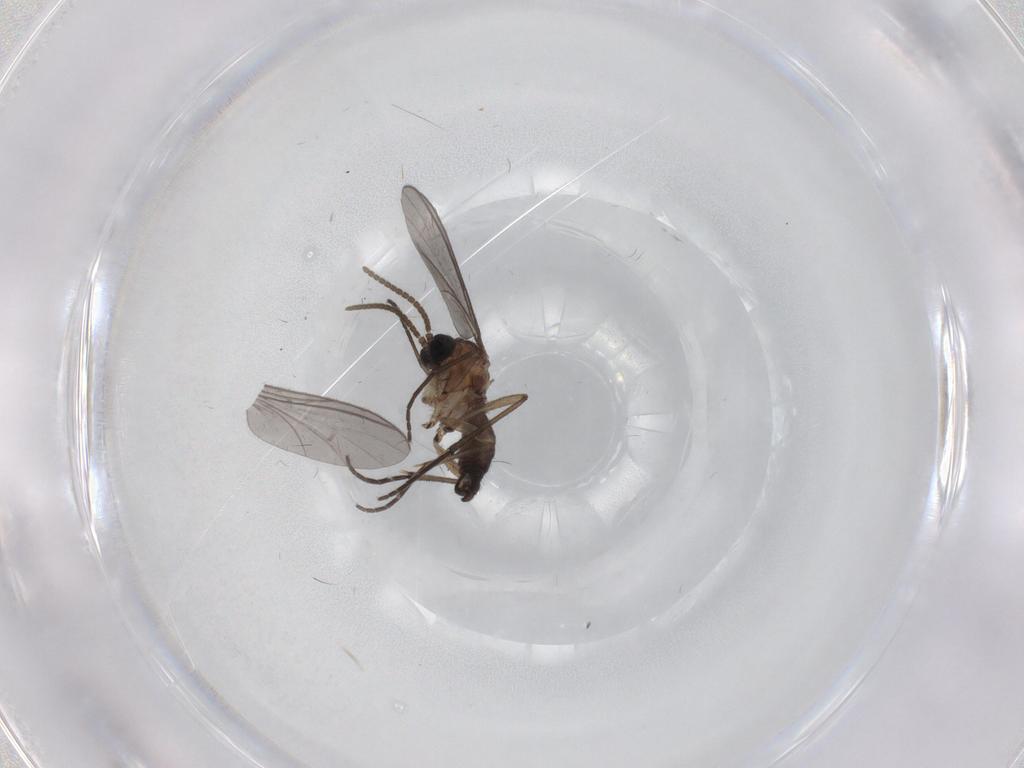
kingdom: Animalia
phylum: Arthropoda
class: Insecta
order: Diptera
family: Chironomidae
